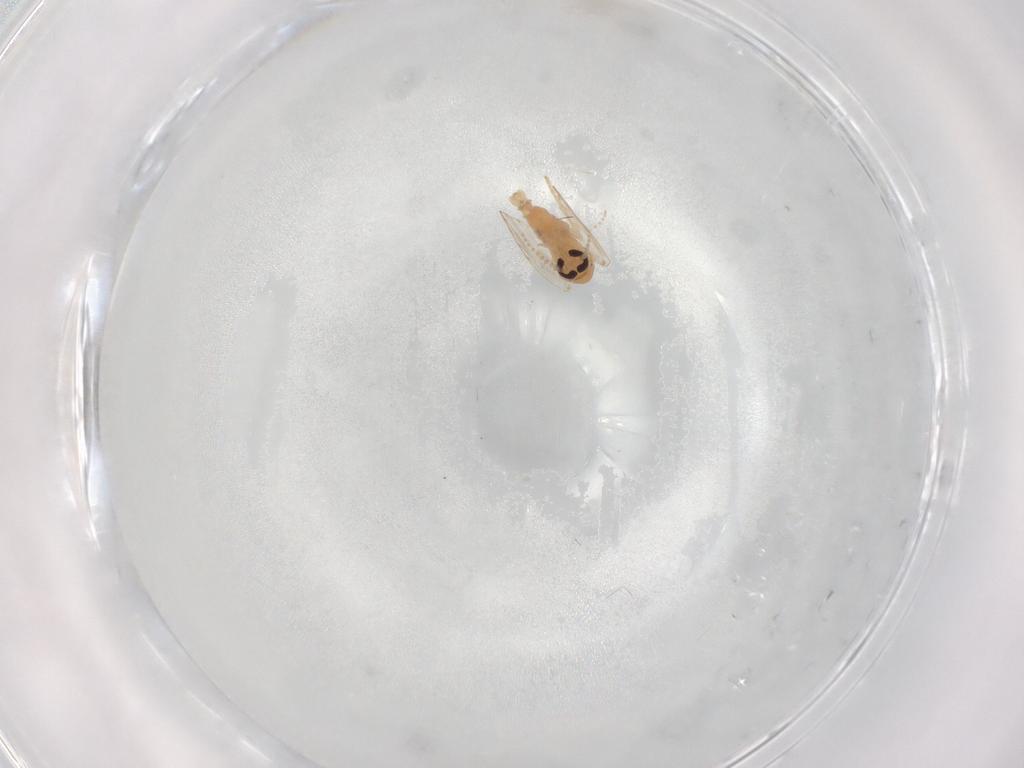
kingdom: Animalia
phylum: Arthropoda
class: Insecta
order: Diptera
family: Psychodidae
